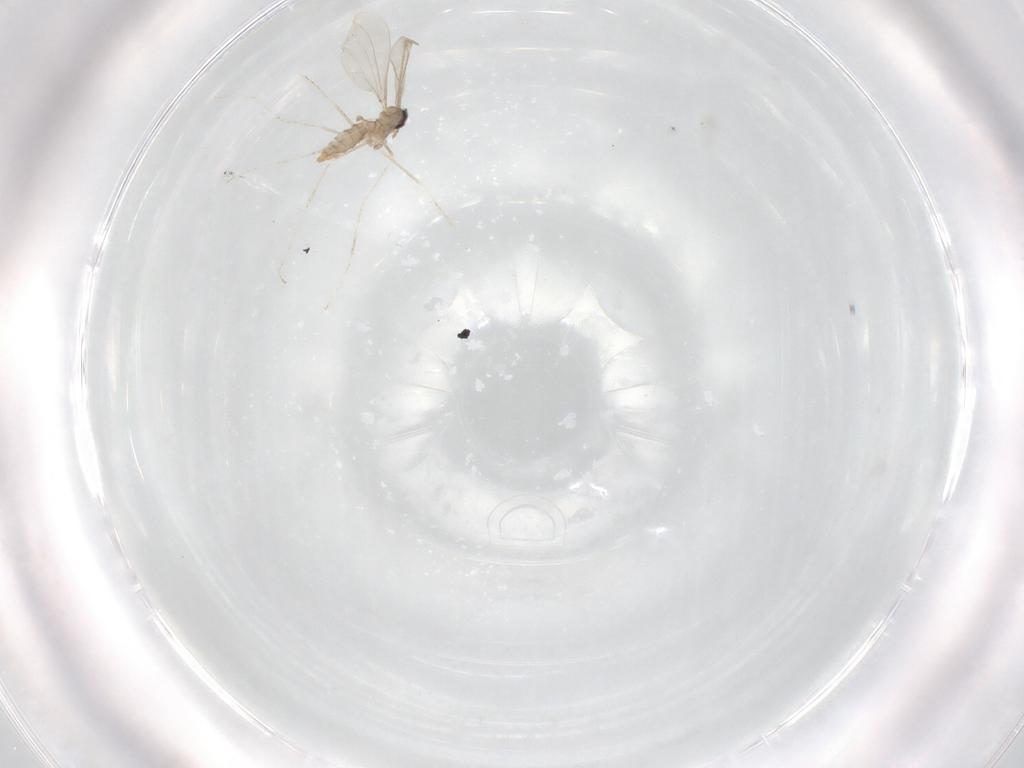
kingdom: Animalia
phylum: Arthropoda
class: Insecta
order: Diptera
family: Cecidomyiidae
